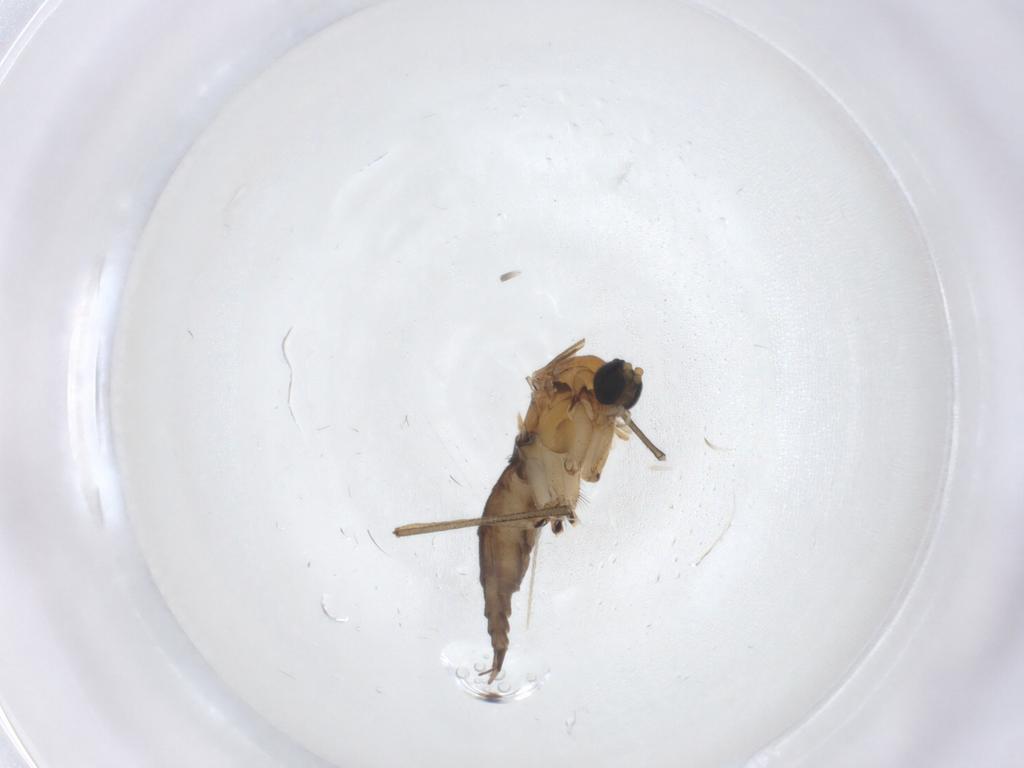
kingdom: Animalia
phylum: Arthropoda
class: Insecta
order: Diptera
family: Sciaridae
